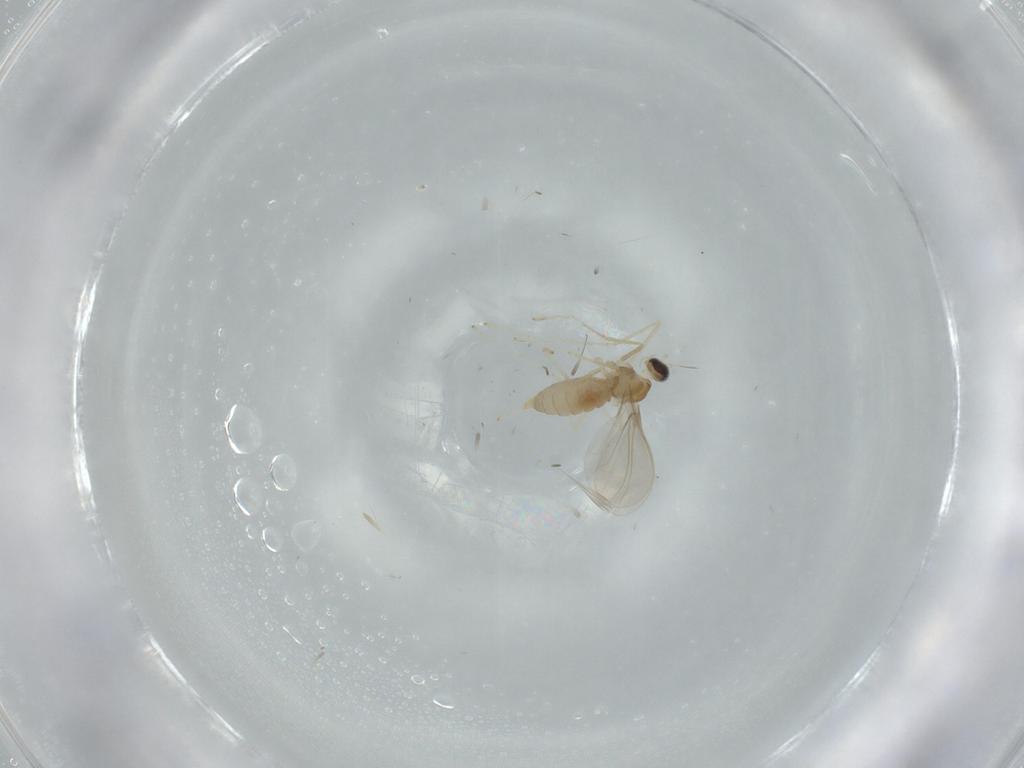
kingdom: Animalia
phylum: Arthropoda
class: Insecta
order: Diptera
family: Cecidomyiidae
